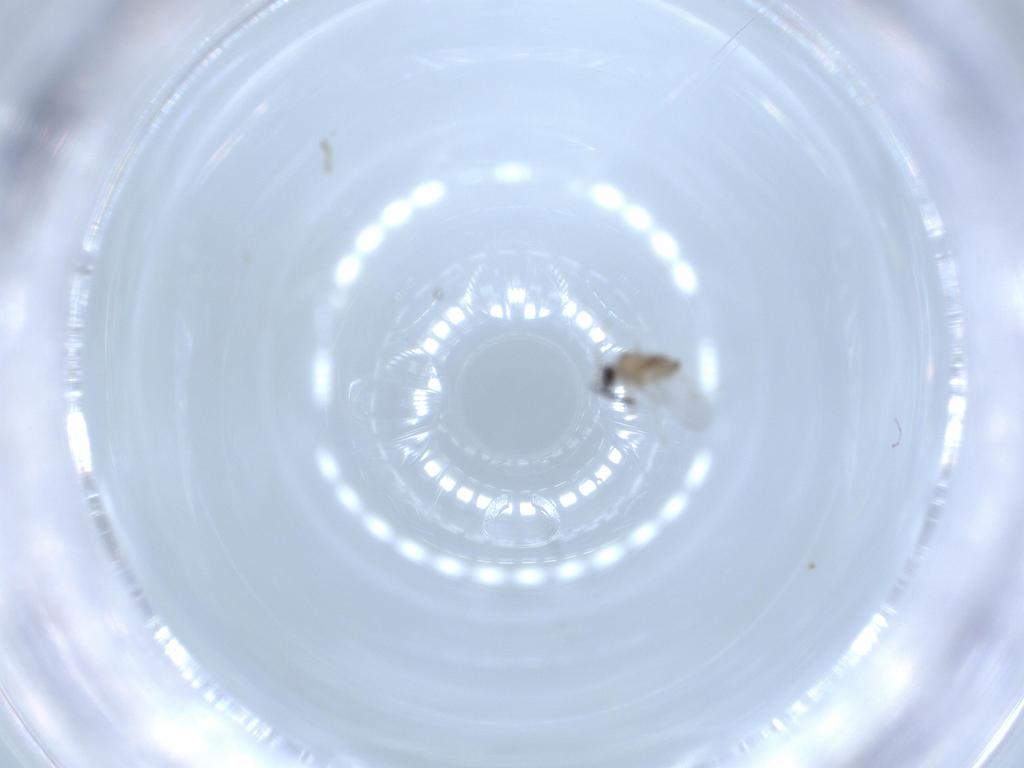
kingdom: Animalia
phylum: Arthropoda
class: Insecta
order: Diptera
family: Sciaridae
